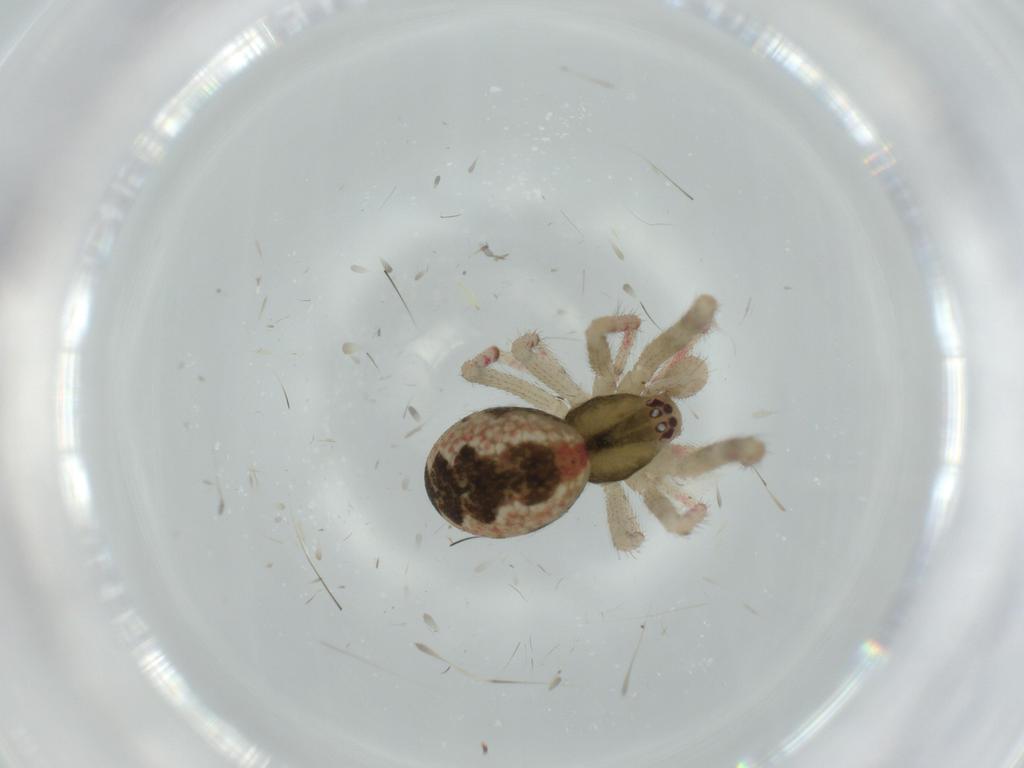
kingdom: Animalia
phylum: Arthropoda
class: Arachnida
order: Araneae
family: Theridiidae
